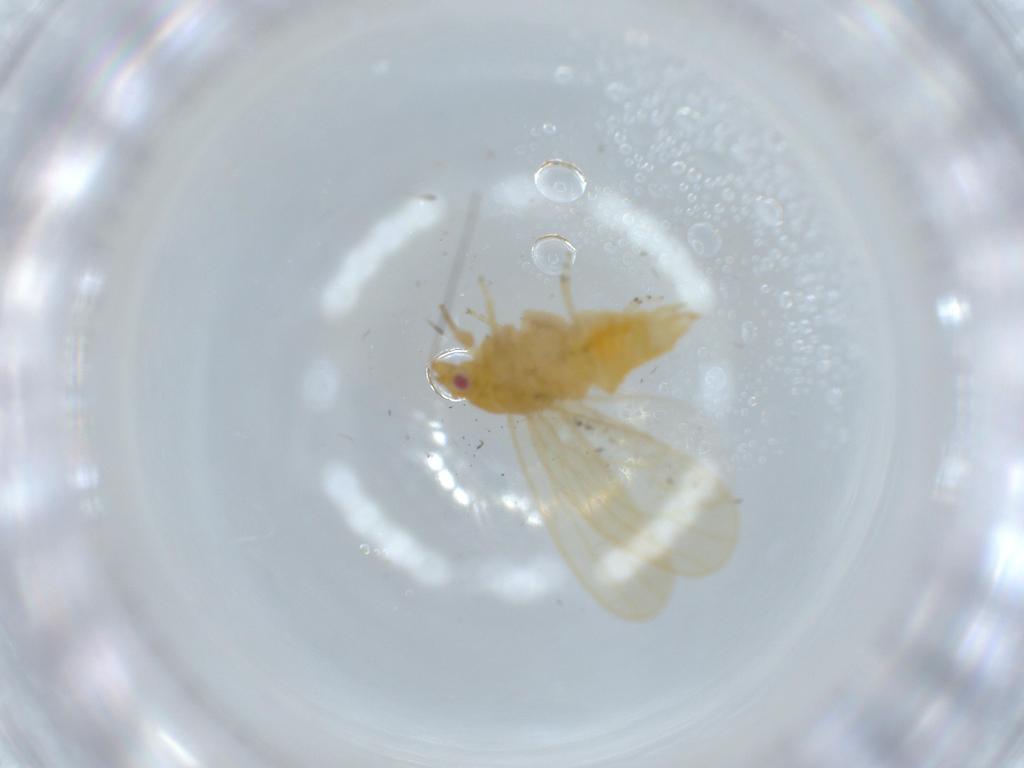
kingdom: Animalia
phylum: Arthropoda
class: Insecta
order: Hemiptera
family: Psyllidae
